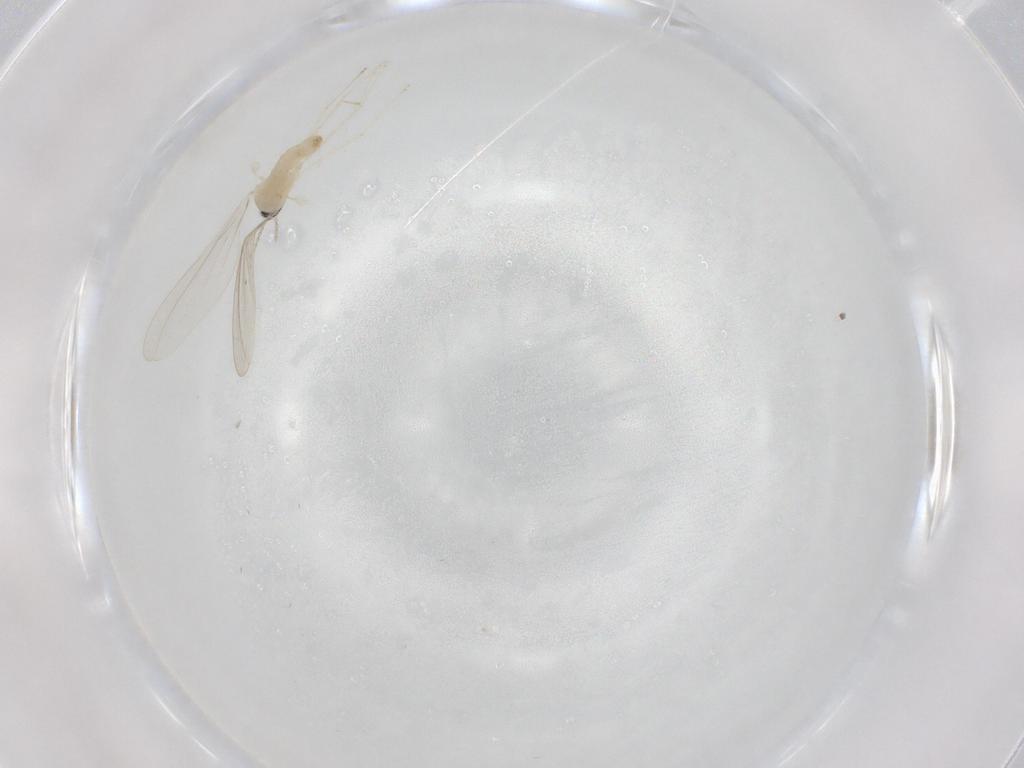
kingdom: Animalia
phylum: Arthropoda
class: Insecta
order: Diptera
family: Cecidomyiidae
